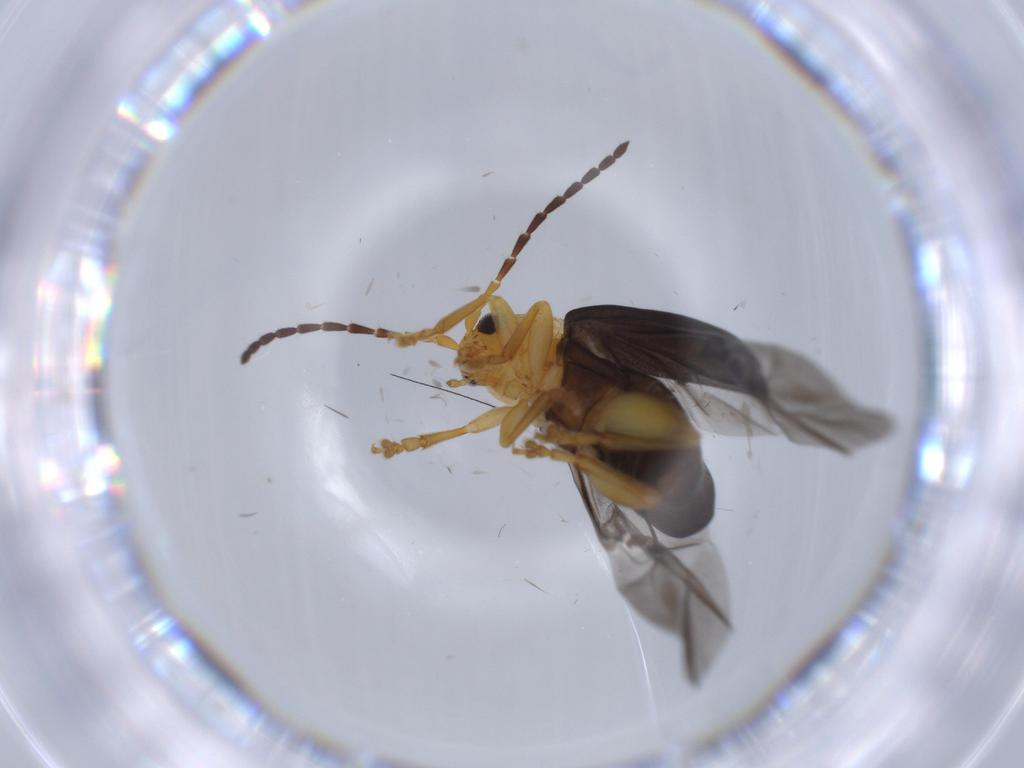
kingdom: Animalia
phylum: Arthropoda
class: Insecta
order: Coleoptera
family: Chrysomelidae
